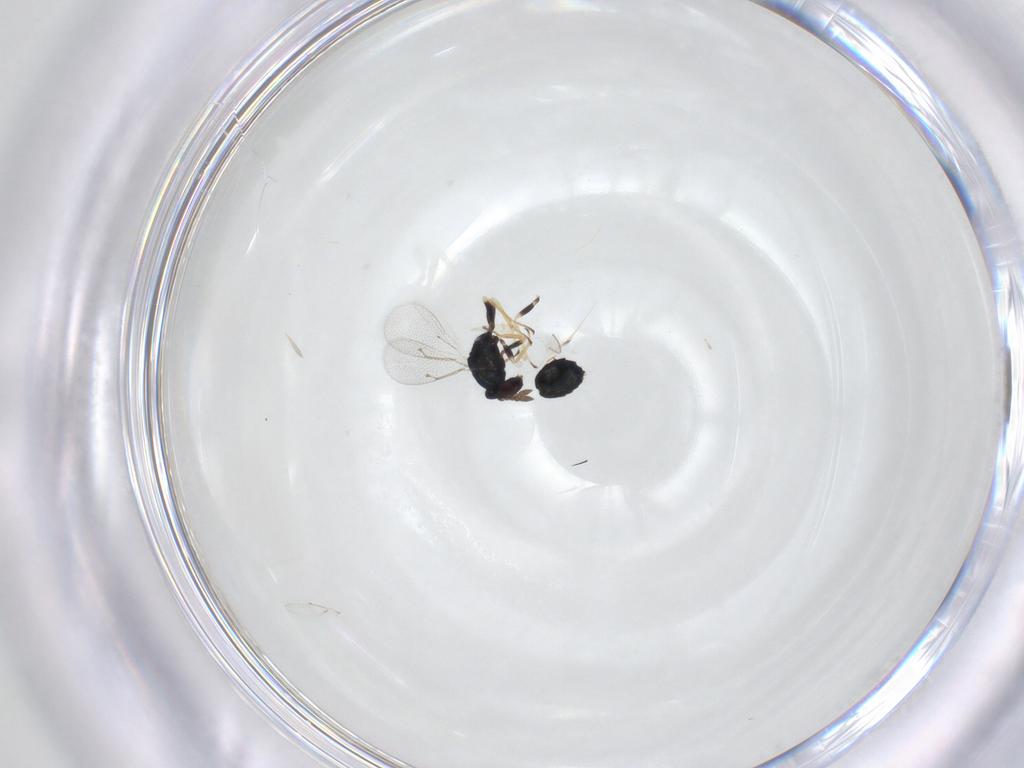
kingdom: Animalia
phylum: Arthropoda
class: Insecta
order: Hymenoptera
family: Eulophidae
